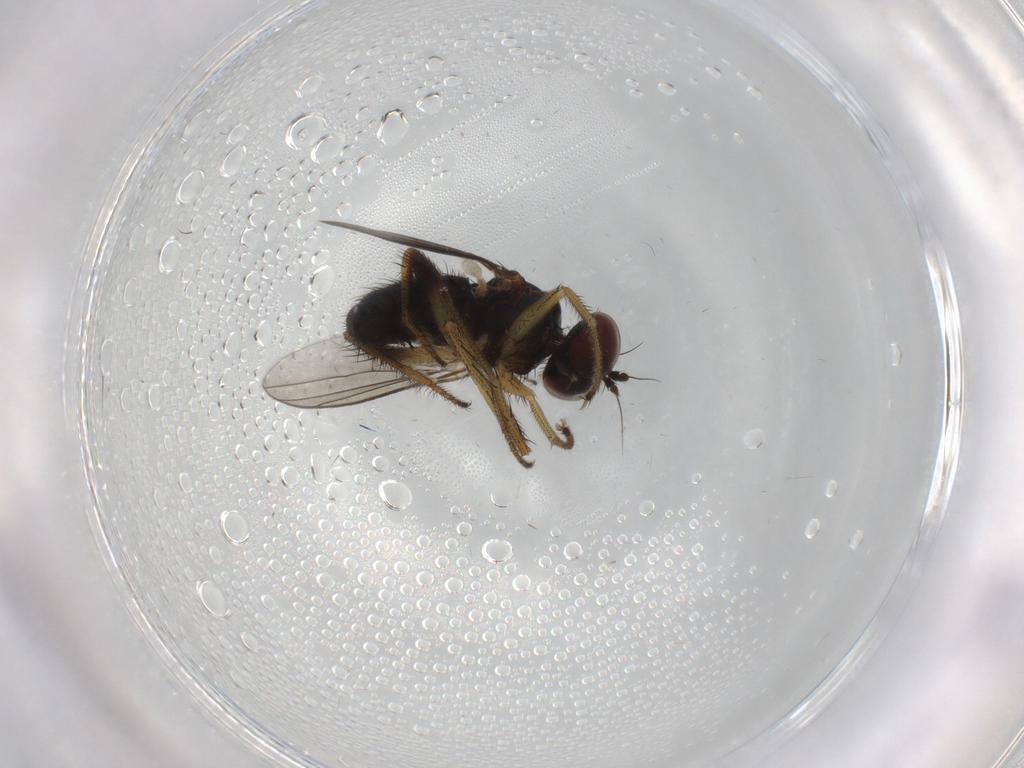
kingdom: Animalia
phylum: Arthropoda
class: Insecta
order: Diptera
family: Dolichopodidae
